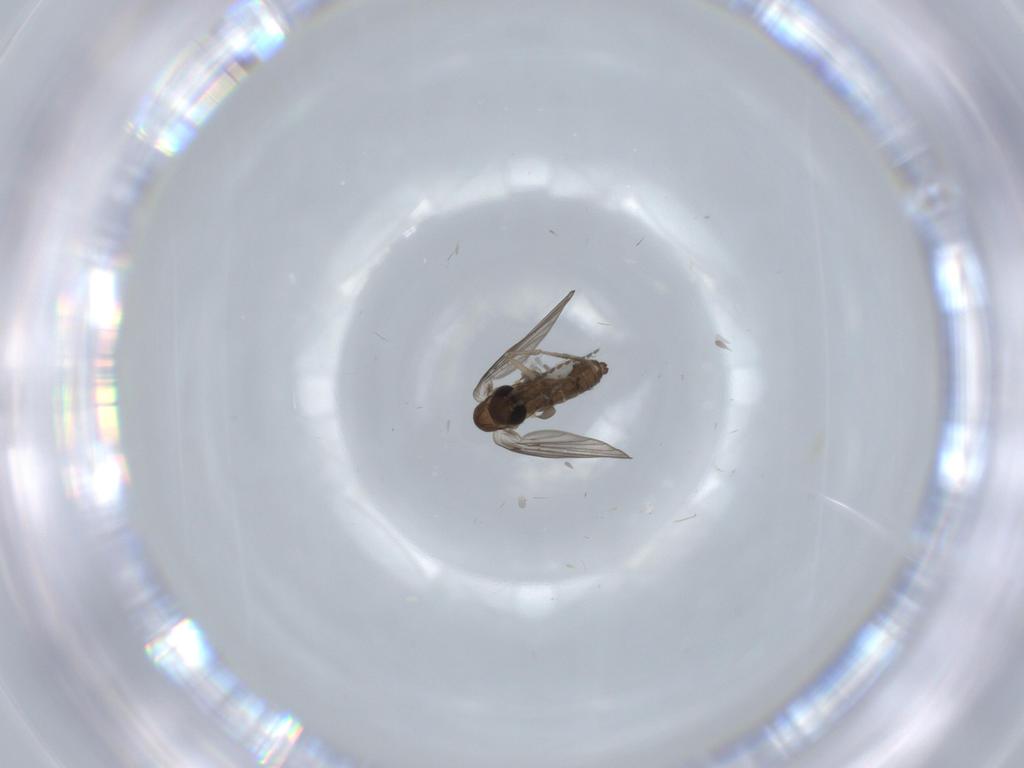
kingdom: Animalia
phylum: Arthropoda
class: Insecta
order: Diptera
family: Psychodidae
